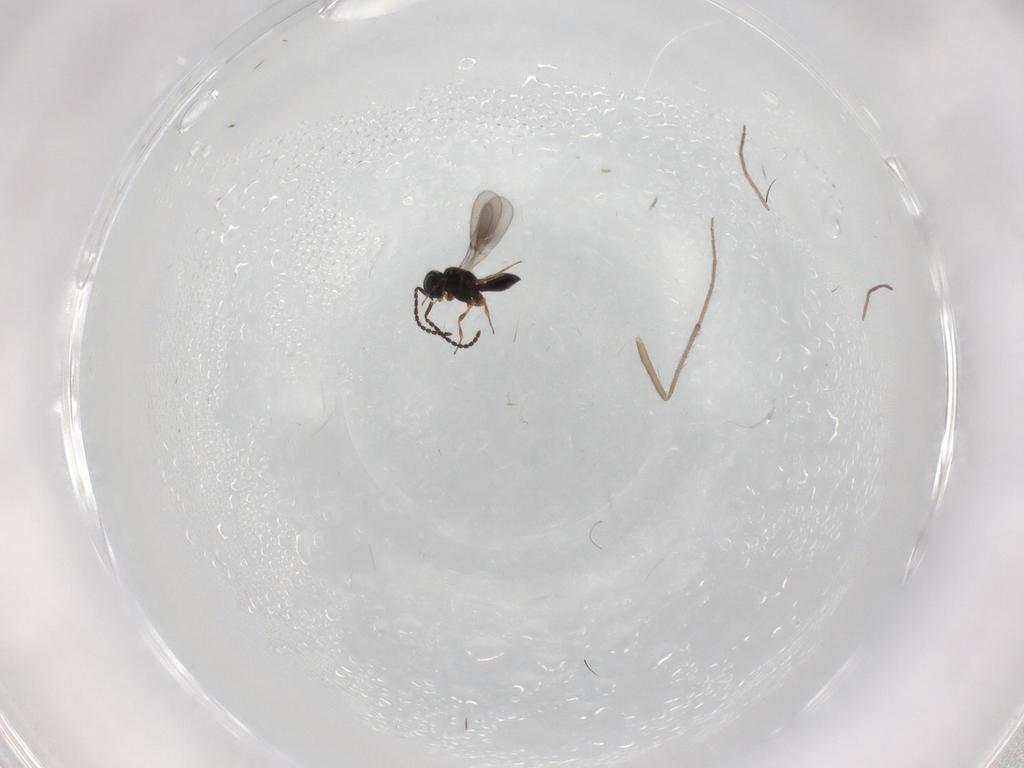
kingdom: Animalia
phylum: Arthropoda
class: Insecta
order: Hymenoptera
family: Scelionidae
